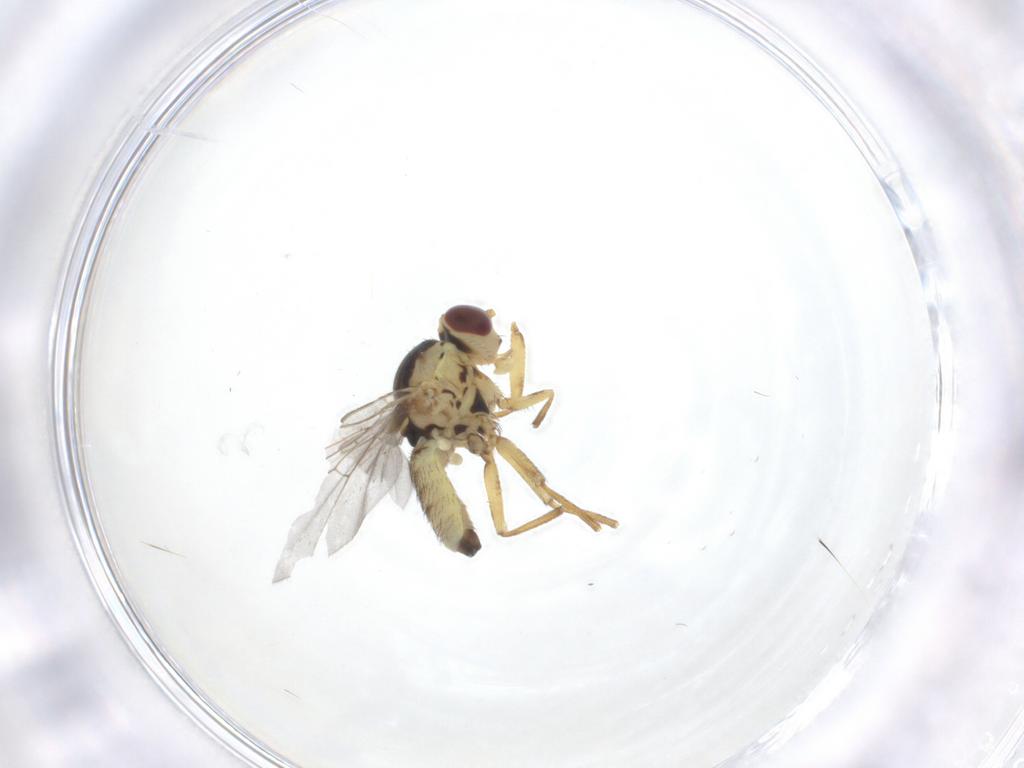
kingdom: Animalia
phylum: Arthropoda
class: Insecta
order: Diptera
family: Agromyzidae
